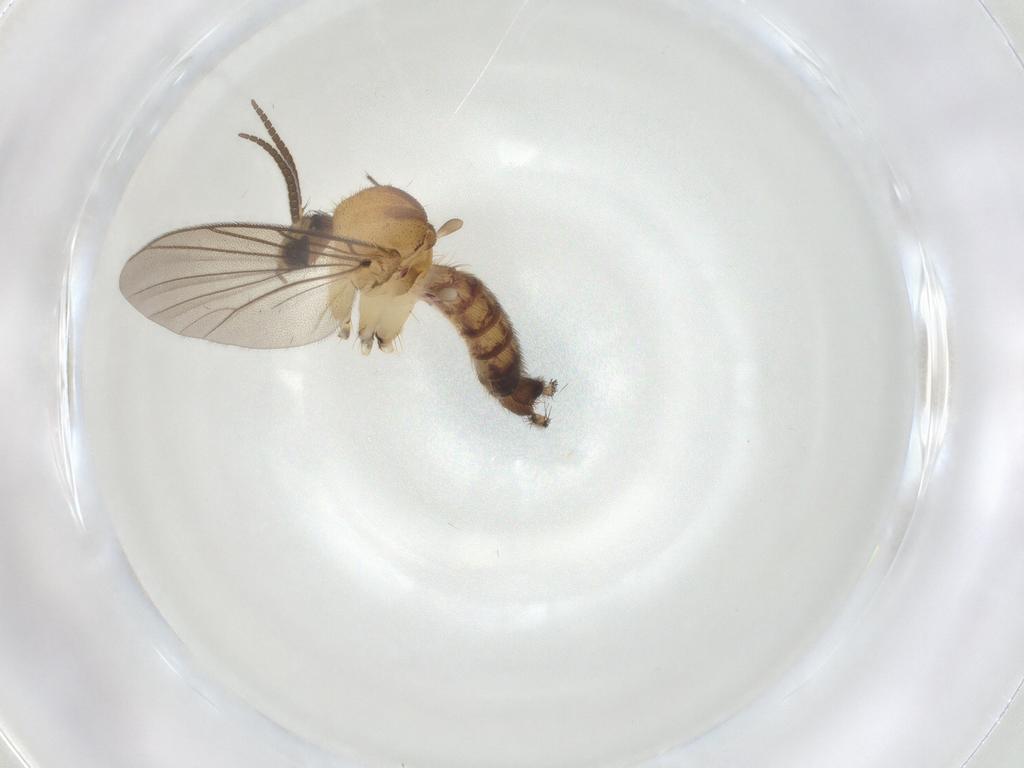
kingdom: Animalia
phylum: Arthropoda
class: Insecta
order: Diptera
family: Mycetophilidae
